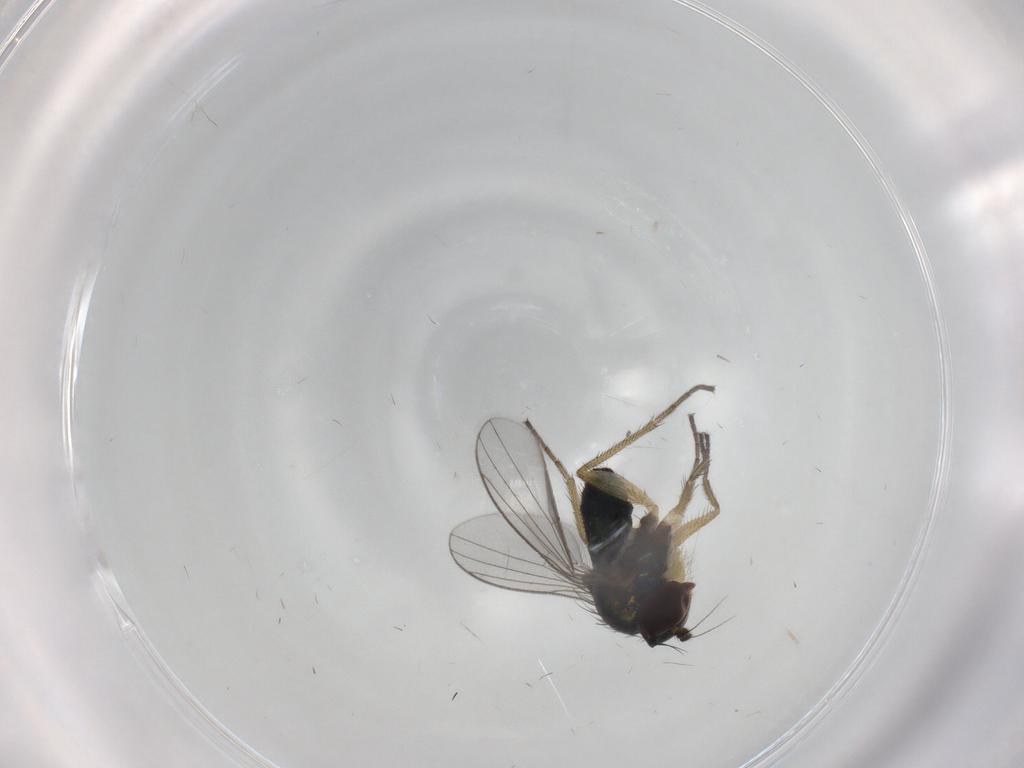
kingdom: Animalia
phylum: Arthropoda
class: Insecta
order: Diptera
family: Dolichopodidae
